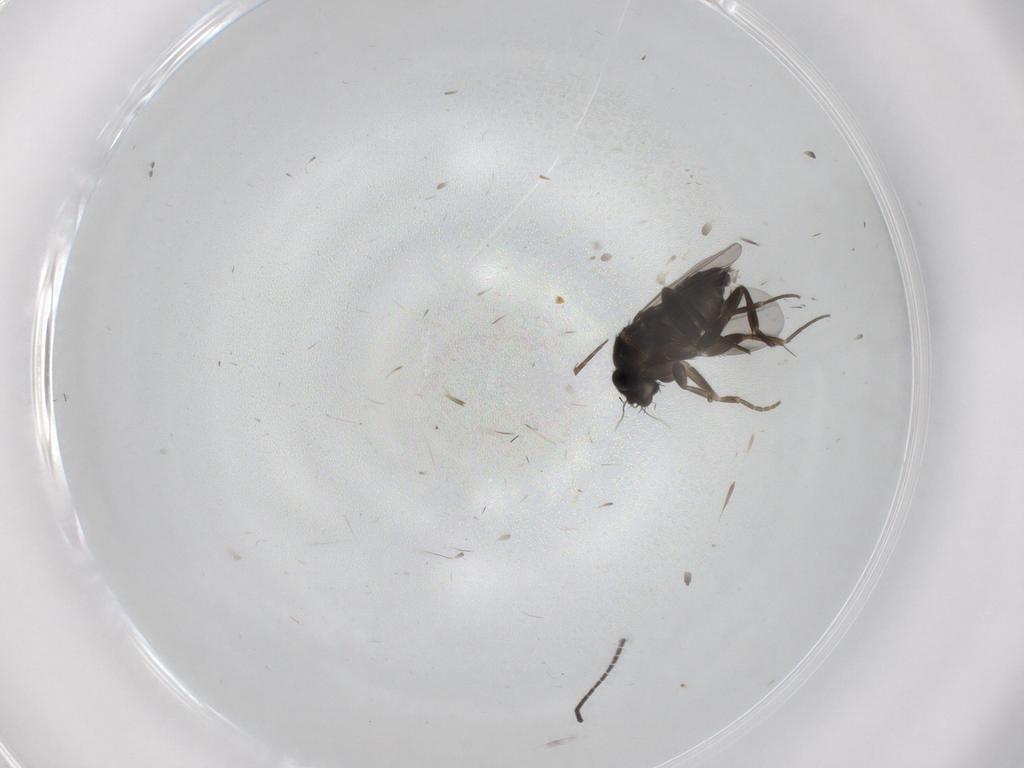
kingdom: Animalia
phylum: Arthropoda
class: Insecta
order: Diptera
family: Phoridae
